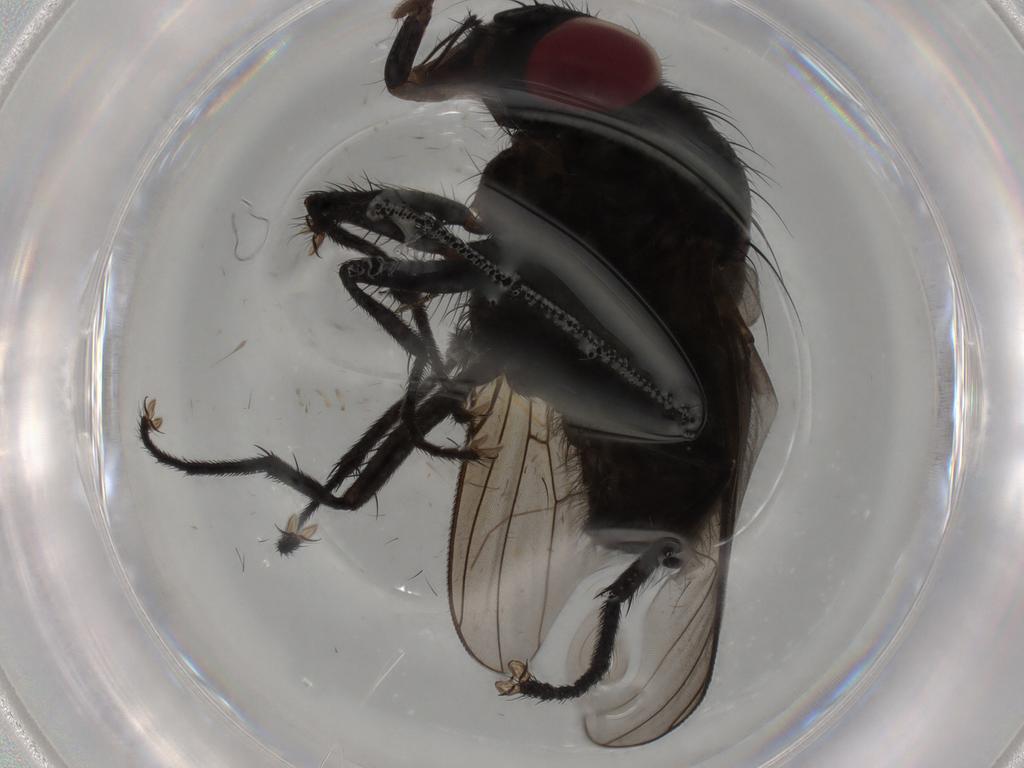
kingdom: Animalia
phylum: Arthropoda
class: Insecta
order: Diptera
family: Muscidae
